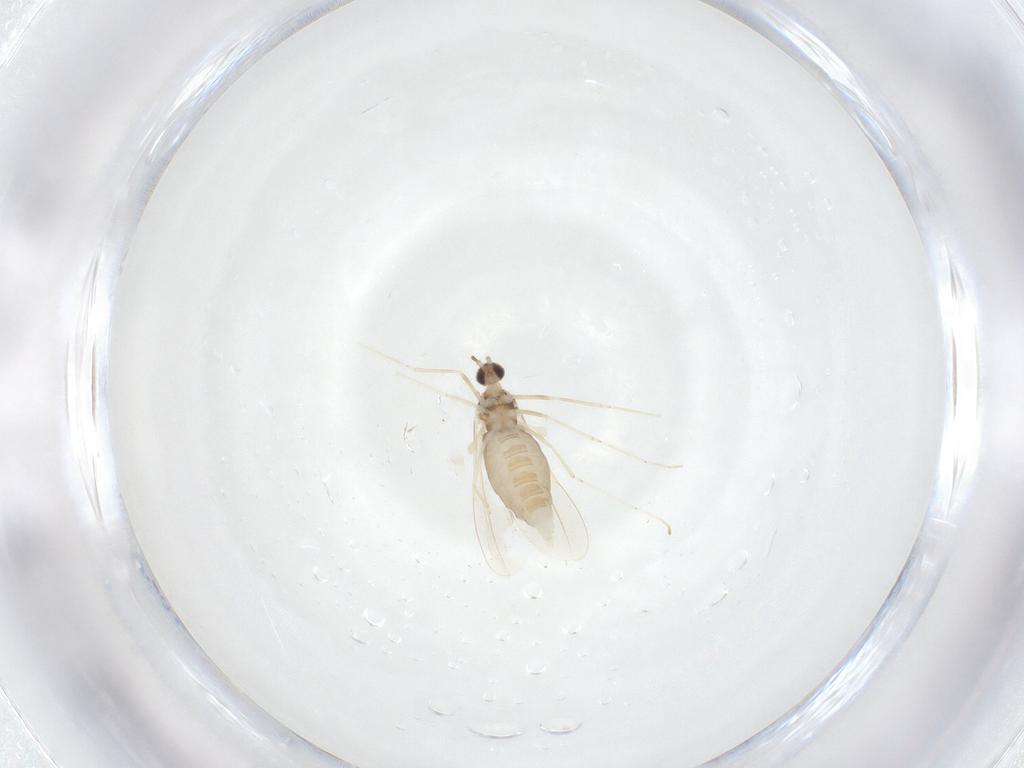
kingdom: Animalia
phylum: Arthropoda
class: Insecta
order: Diptera
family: Cecidomyiidae
